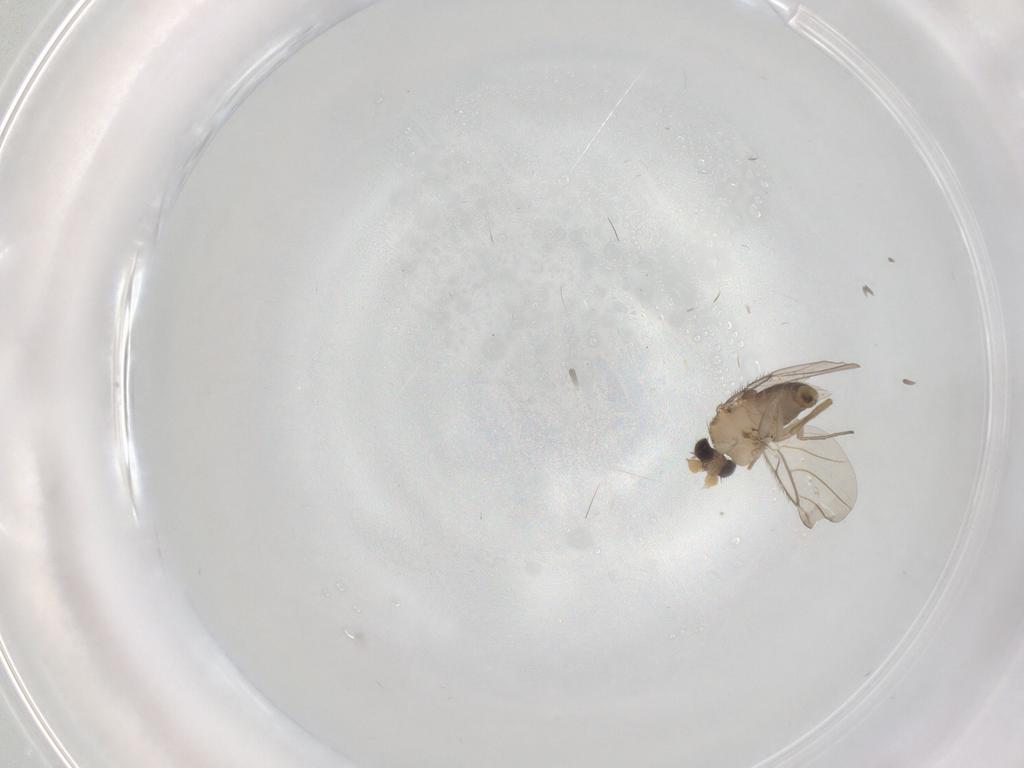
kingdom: Animalia
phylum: Arthropoda
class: Insecta
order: Diptera
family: Phoridae
